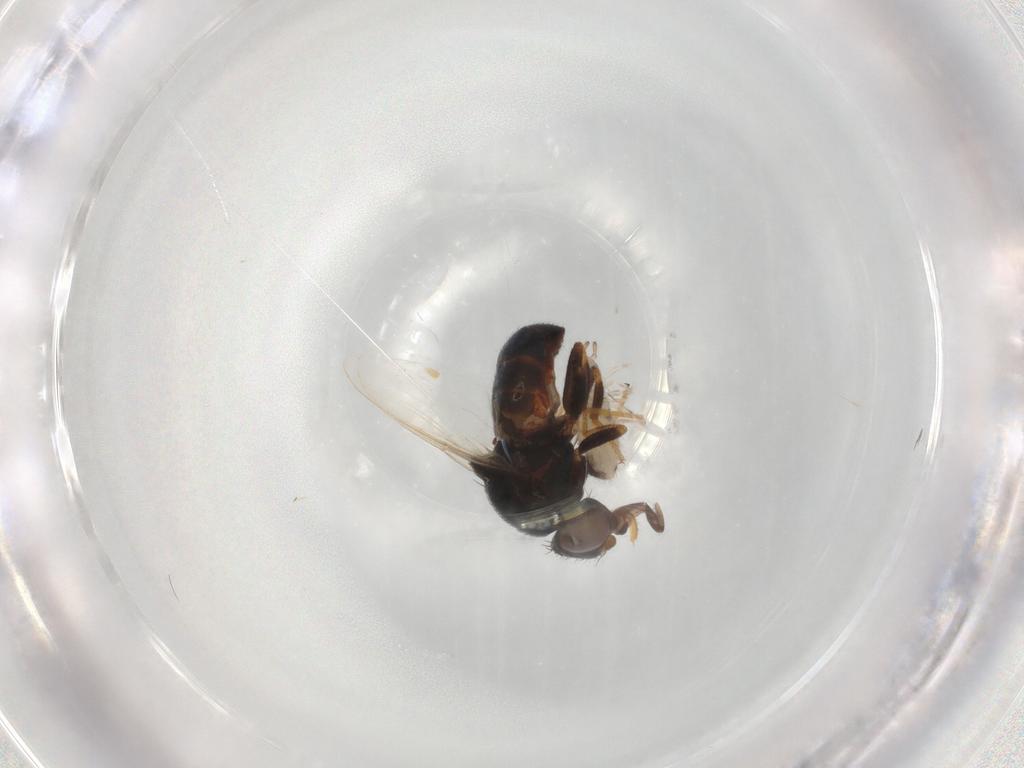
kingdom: Animalia
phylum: Arthropoda
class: Insecta
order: Diptera
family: Chloropidae
